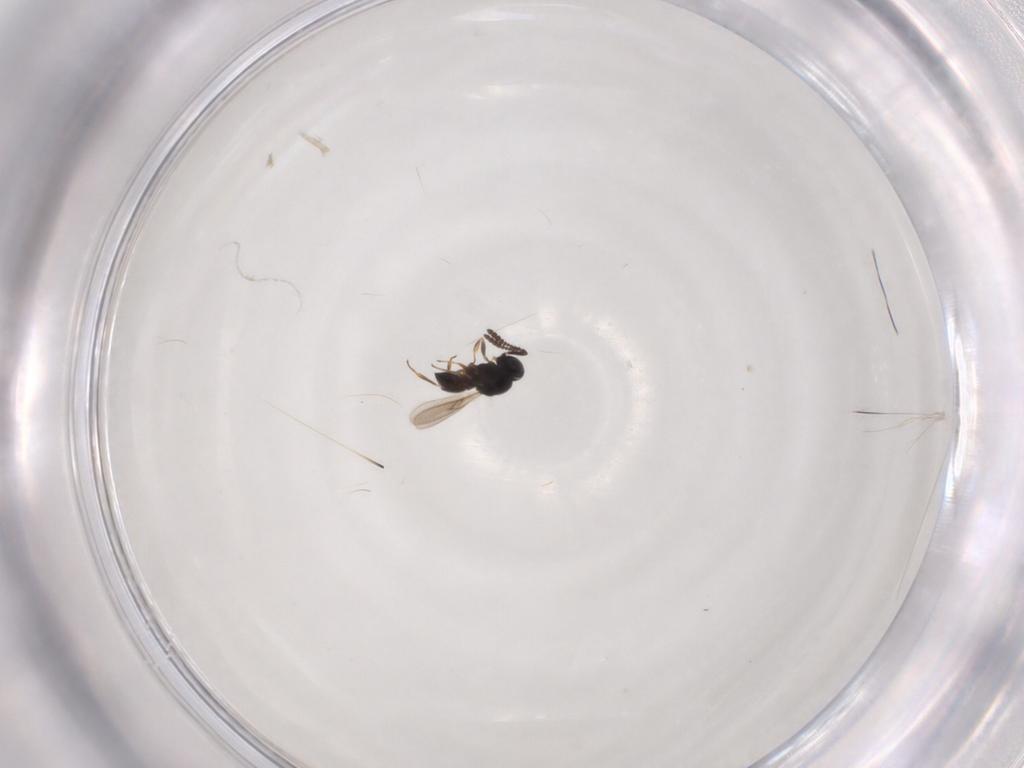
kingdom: Animalia
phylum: Arthropoda
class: Insecta
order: Hymenoptera
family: Scelionidae
